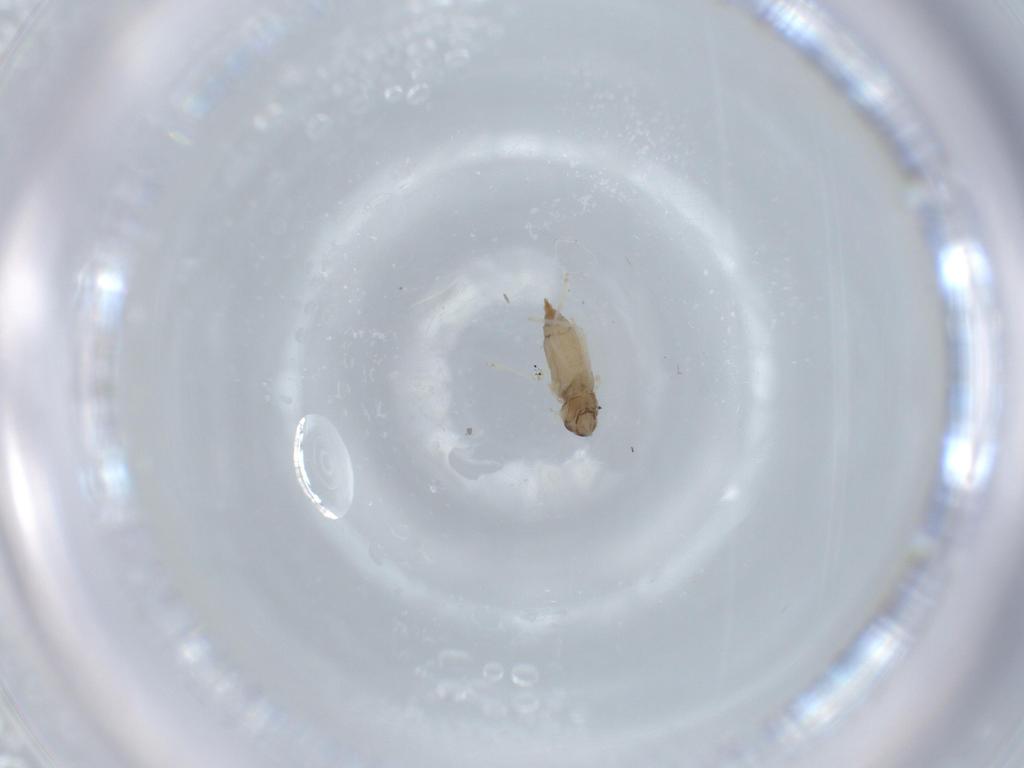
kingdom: Animalia
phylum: Arthropoda
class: Insecta
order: Diptera
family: Cecidomyiidae
